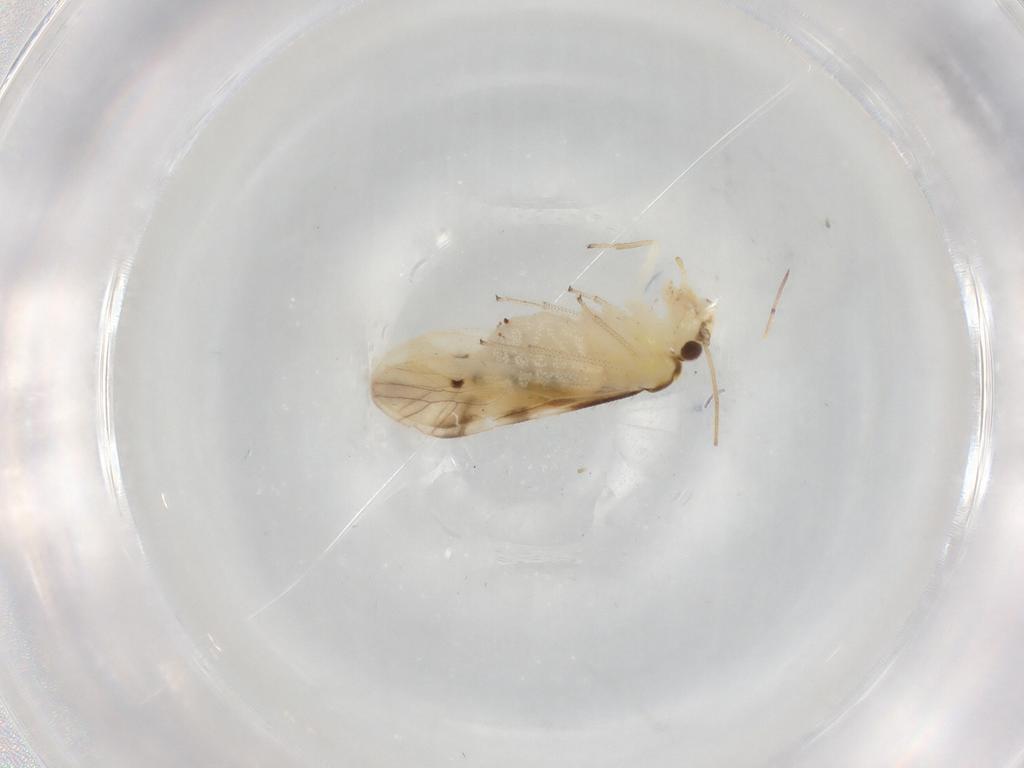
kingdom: Animalia
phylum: Arthropoda
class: Insecta
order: Psocodea
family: Caeciliusidae
